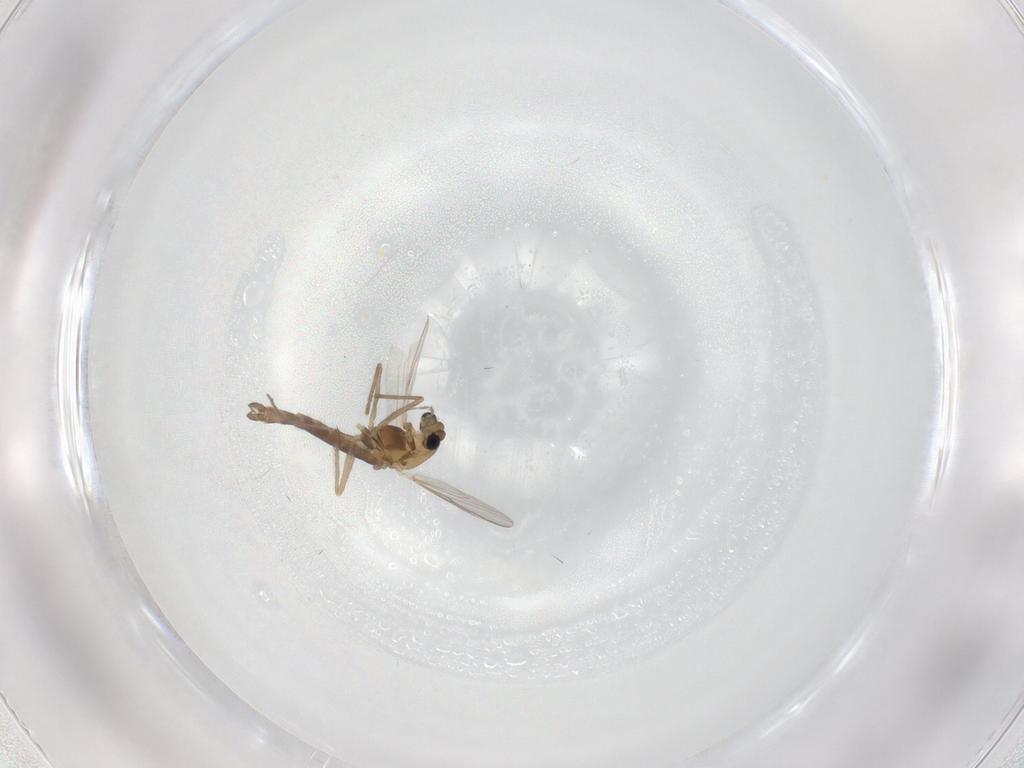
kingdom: Animalia
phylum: Arthropoda
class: Insecta
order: Diptera
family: Chironomidae
